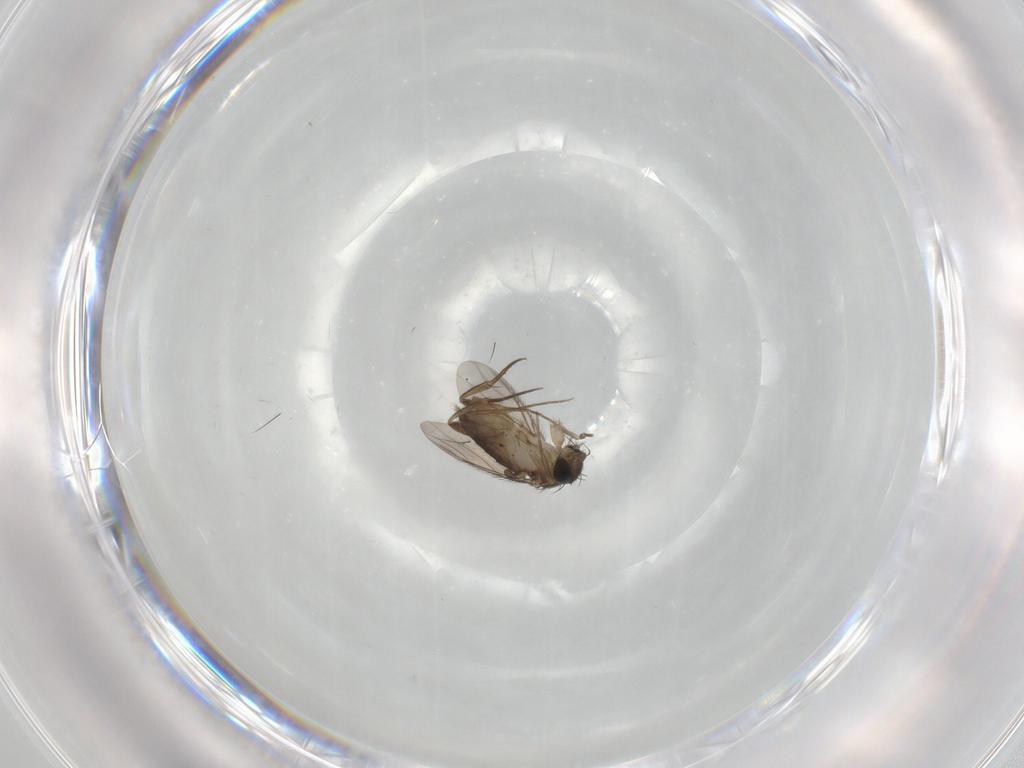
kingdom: Animalia
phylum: Arthropoda
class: Insecta
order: Diptera
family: Phoridae
